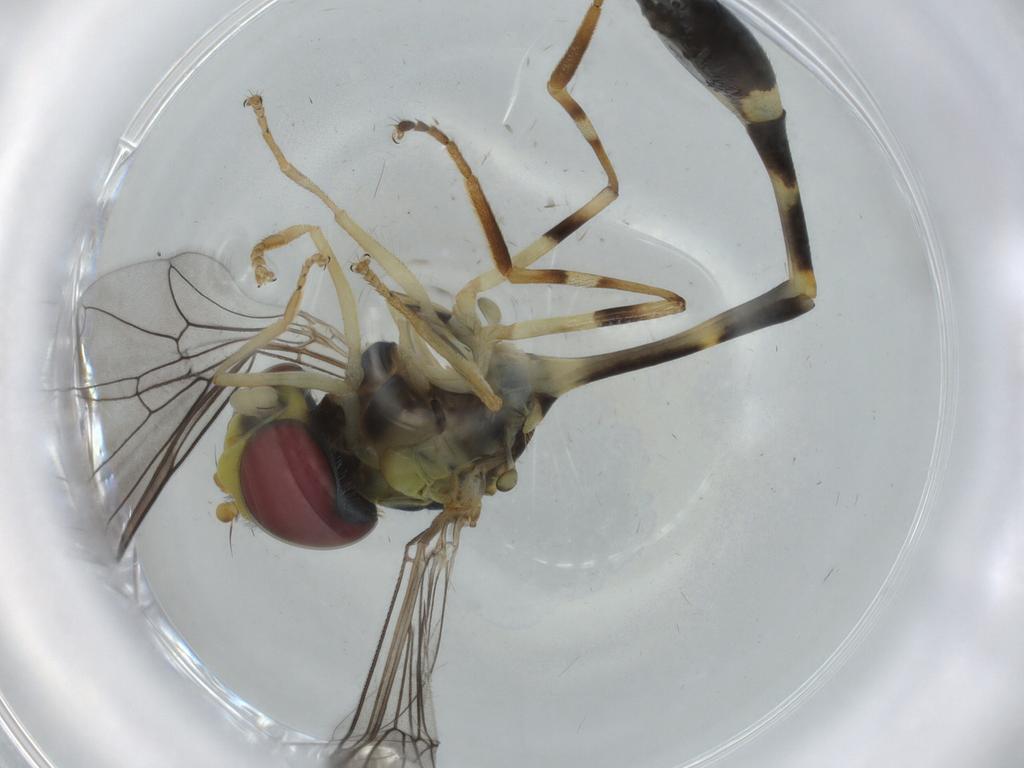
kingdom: Animalia
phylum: Arthropoda
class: Insecta
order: Diptera
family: Syrphidae
